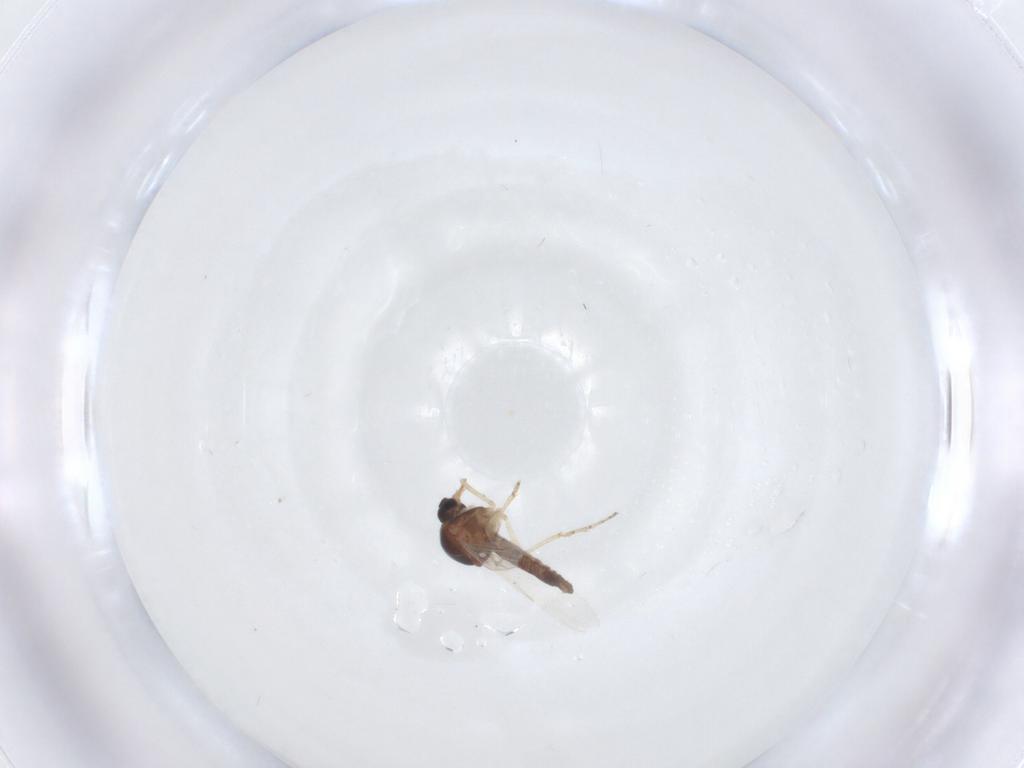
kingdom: Animalia
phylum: Arthropoda
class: Insecta
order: Diptera
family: Ceratopogonidae
